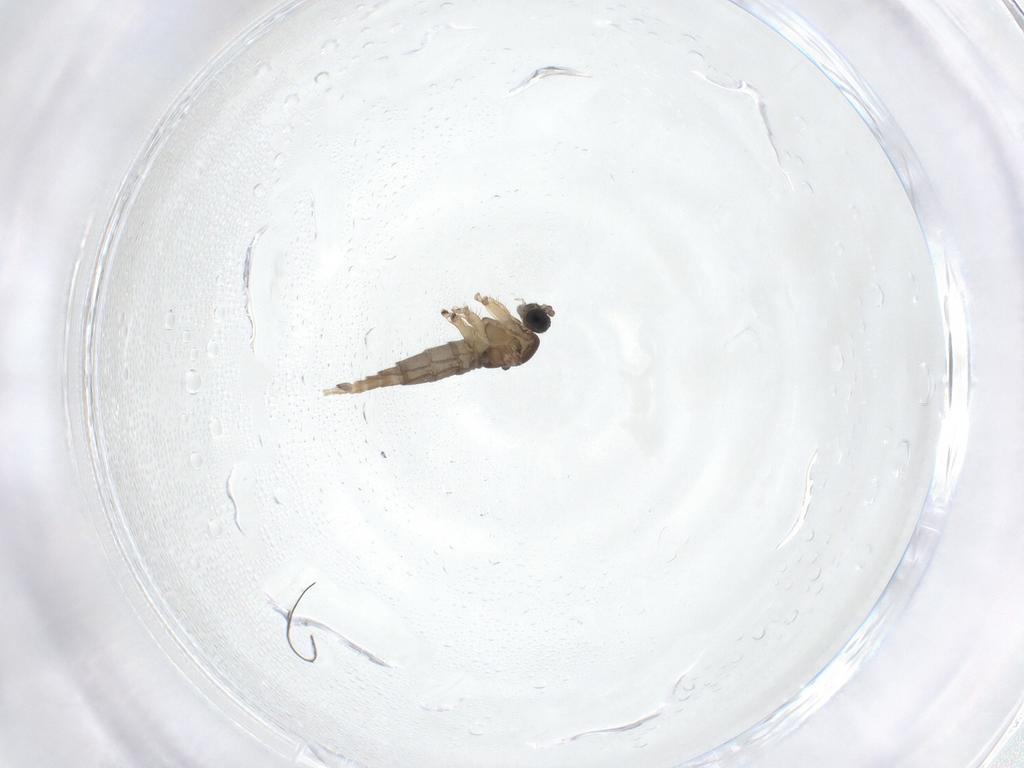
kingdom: Animalia
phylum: Arthropoda
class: Insecta
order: Diptera
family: Sciaridae
